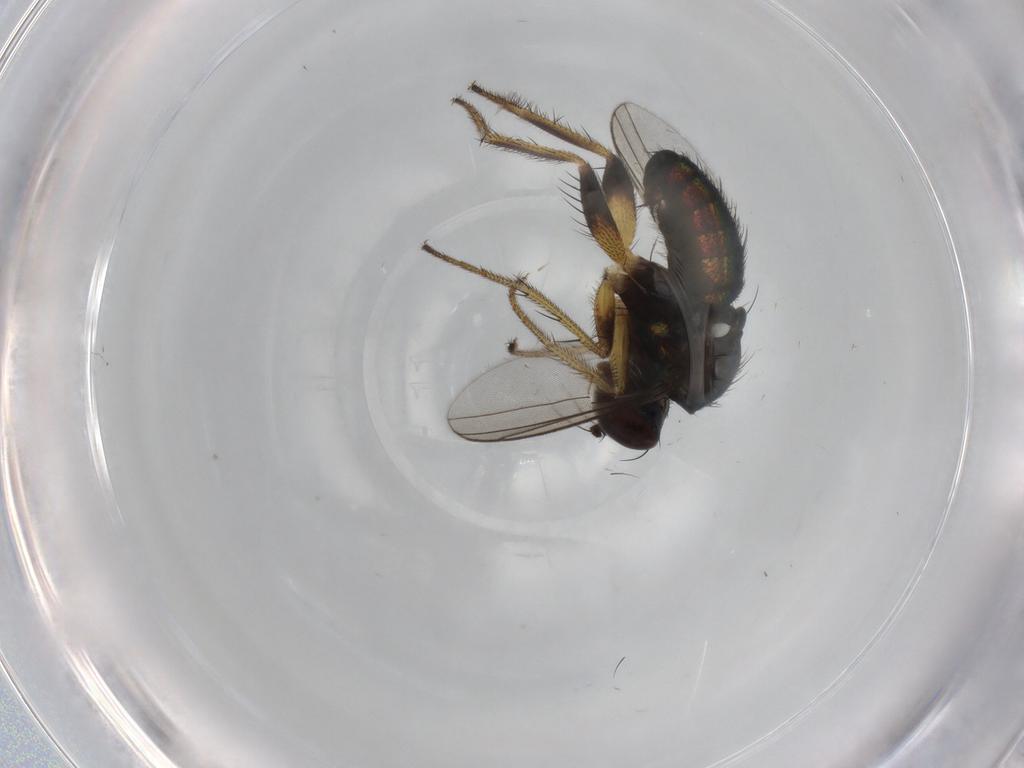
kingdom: Animalia
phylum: Arthropoda
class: Insecta
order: Diptera
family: Dolichopodidae
